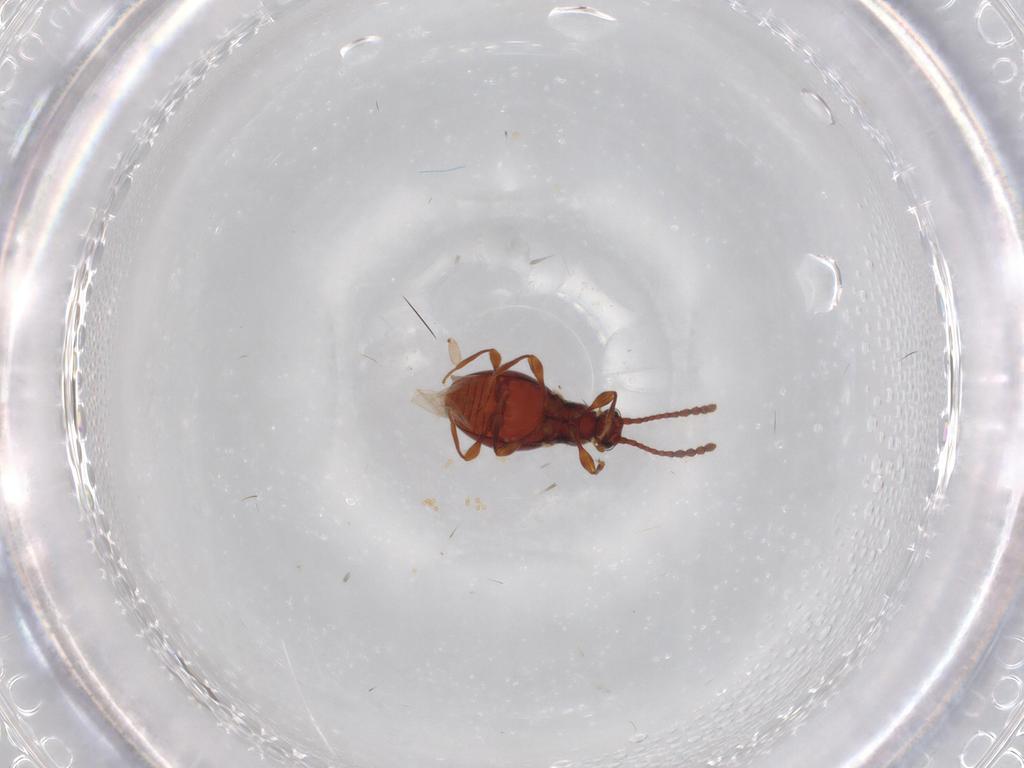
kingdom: Animalia
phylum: Arthropoda
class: Insecta
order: Coleoptera
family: Staphylinidae
